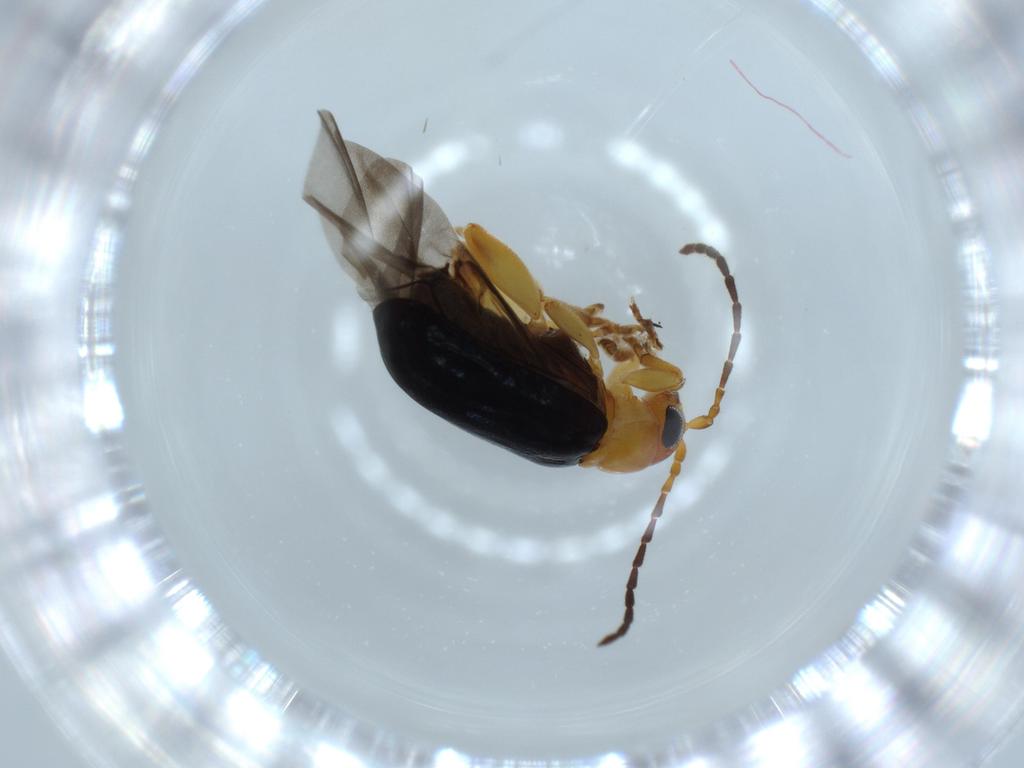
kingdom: Animalia
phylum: Arthropoda
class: Insecta
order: Coleoptera
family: Chrysomelidae
